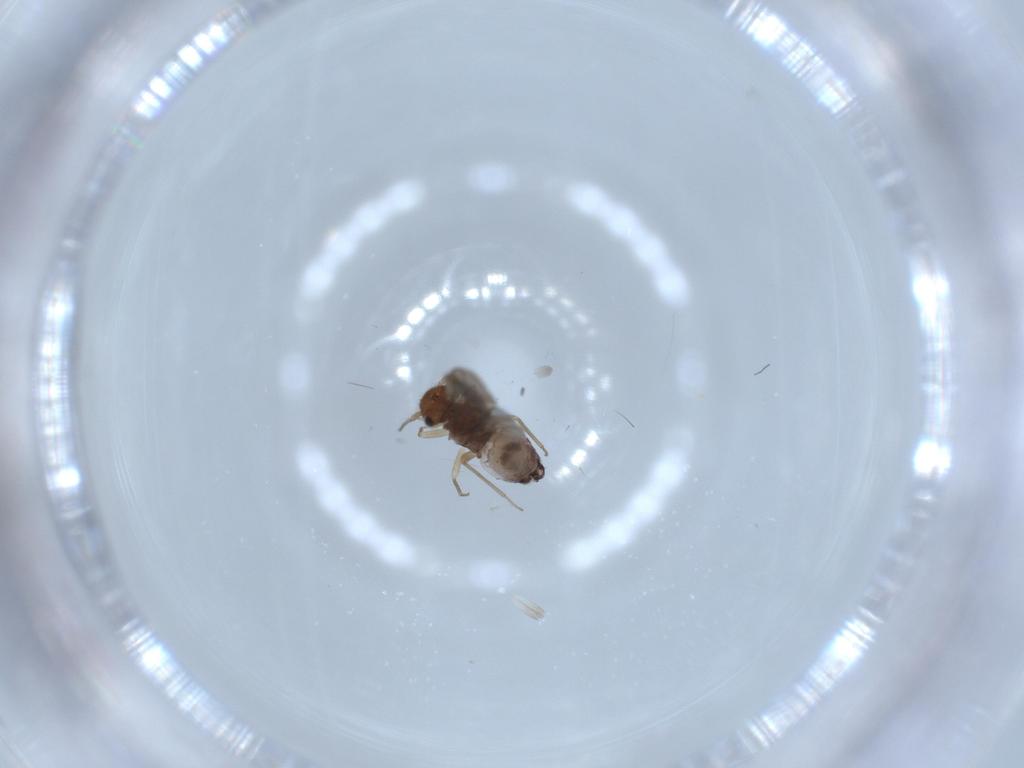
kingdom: Animalia
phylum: Arthropoda
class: Insecta
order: Psocodea
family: Ectopsocidae
